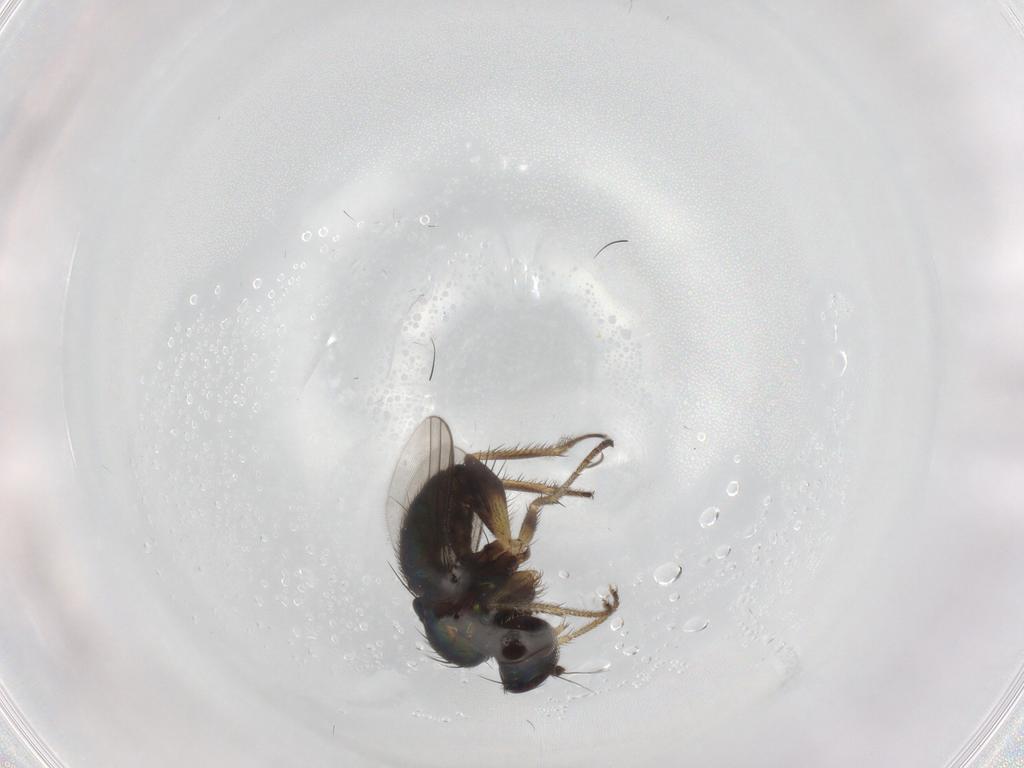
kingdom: Animalia
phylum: Arthropoda
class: Insecta
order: Diptera
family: Dolichopodidae
